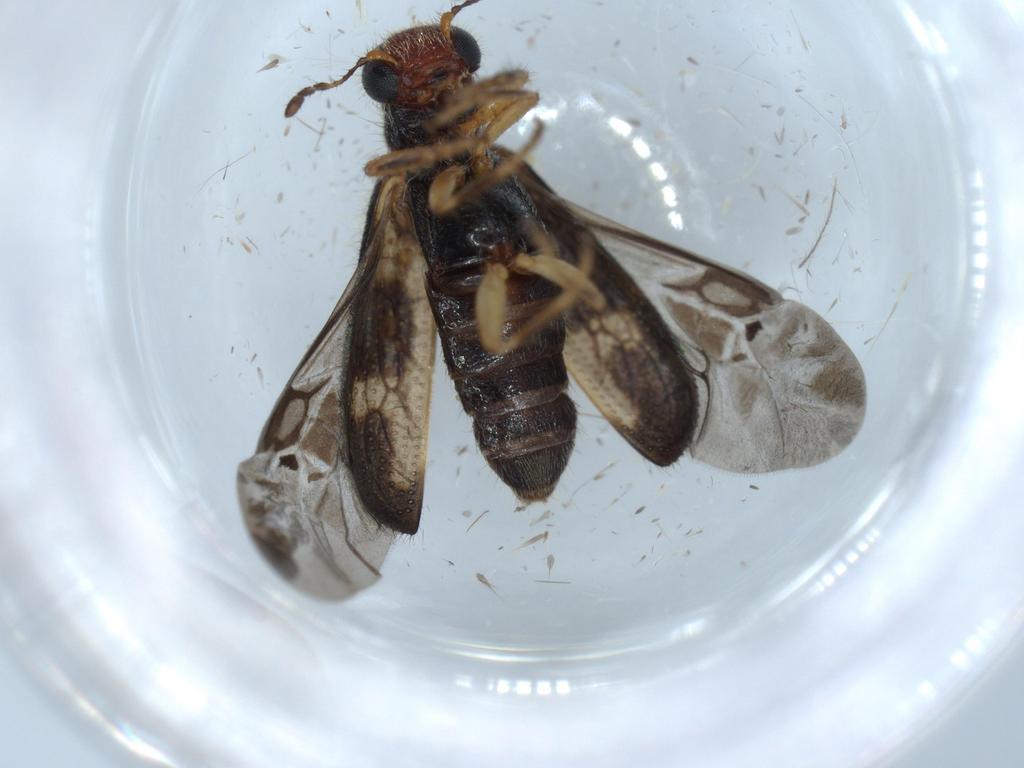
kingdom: Animalia
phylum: Arthropoda
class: Insecta
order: Coleoptera
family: Cleridae
